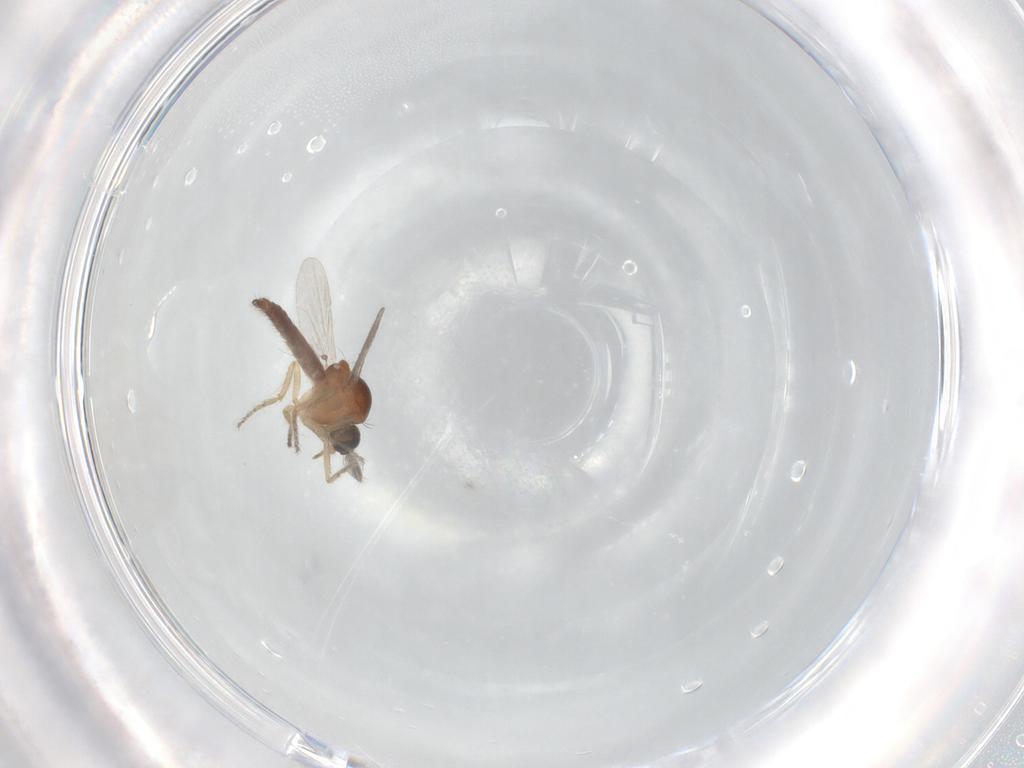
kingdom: Animalia
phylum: Arthropoda
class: Insecta
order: Diptera
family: Ceratopogonidae
